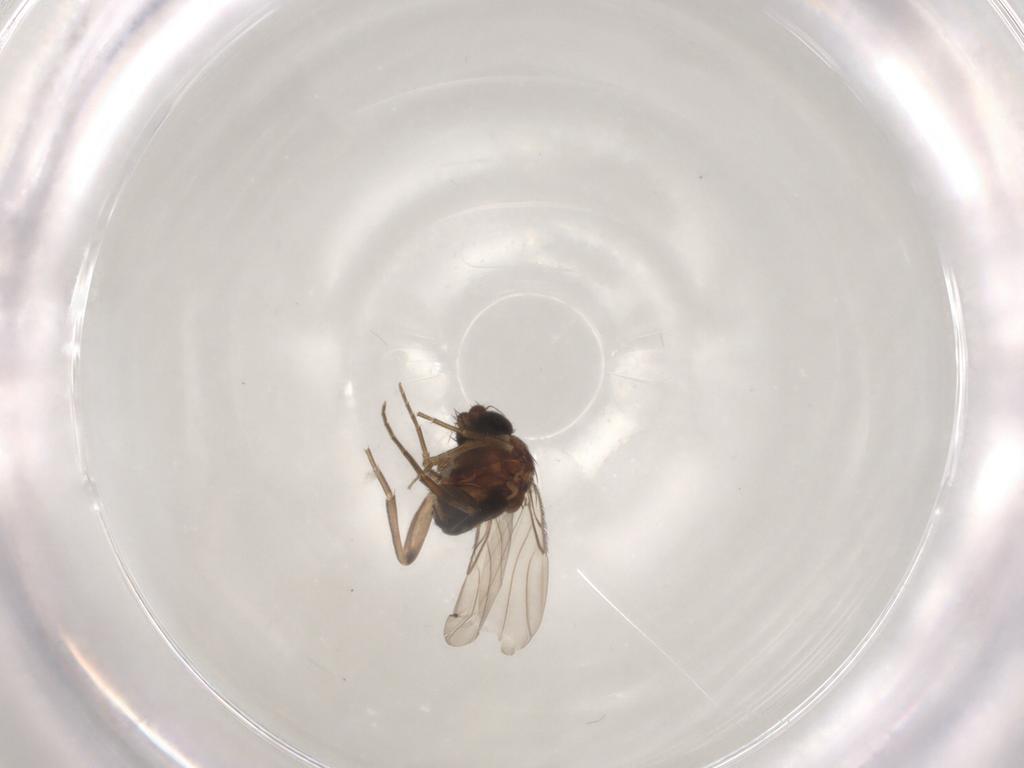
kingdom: Animalia
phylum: Arthropoda
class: Insecta
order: Diptera
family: Phoridae
